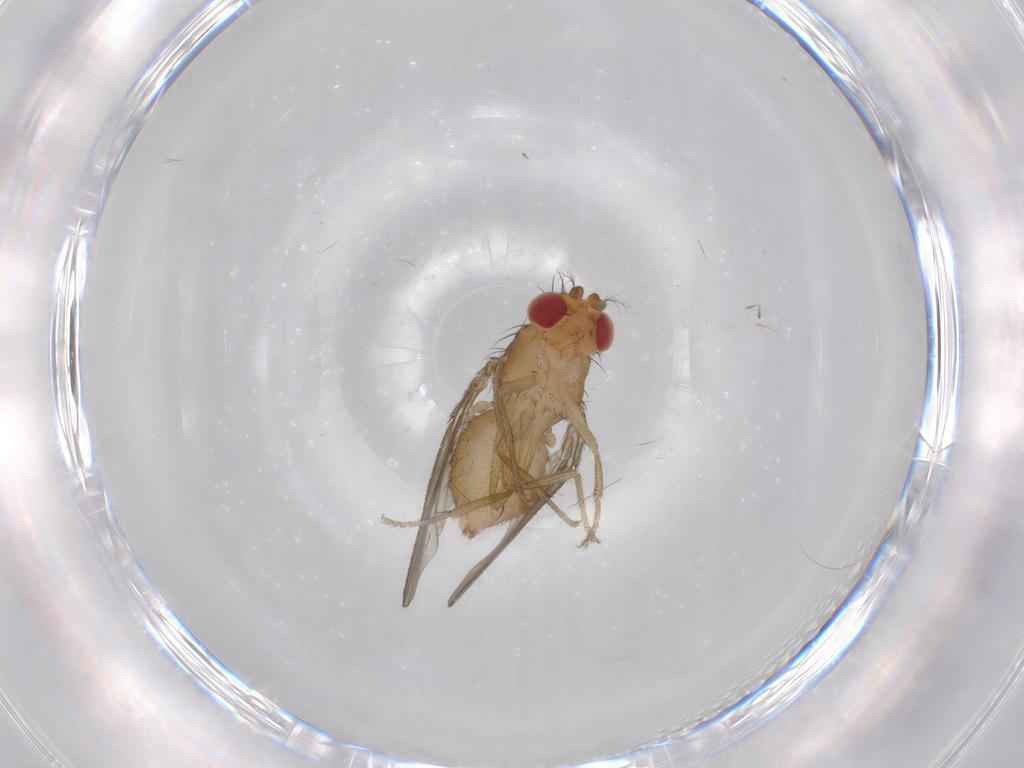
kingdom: Animalia
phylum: Arthropoda
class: Insecta
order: Diptera
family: Drosophilidae
